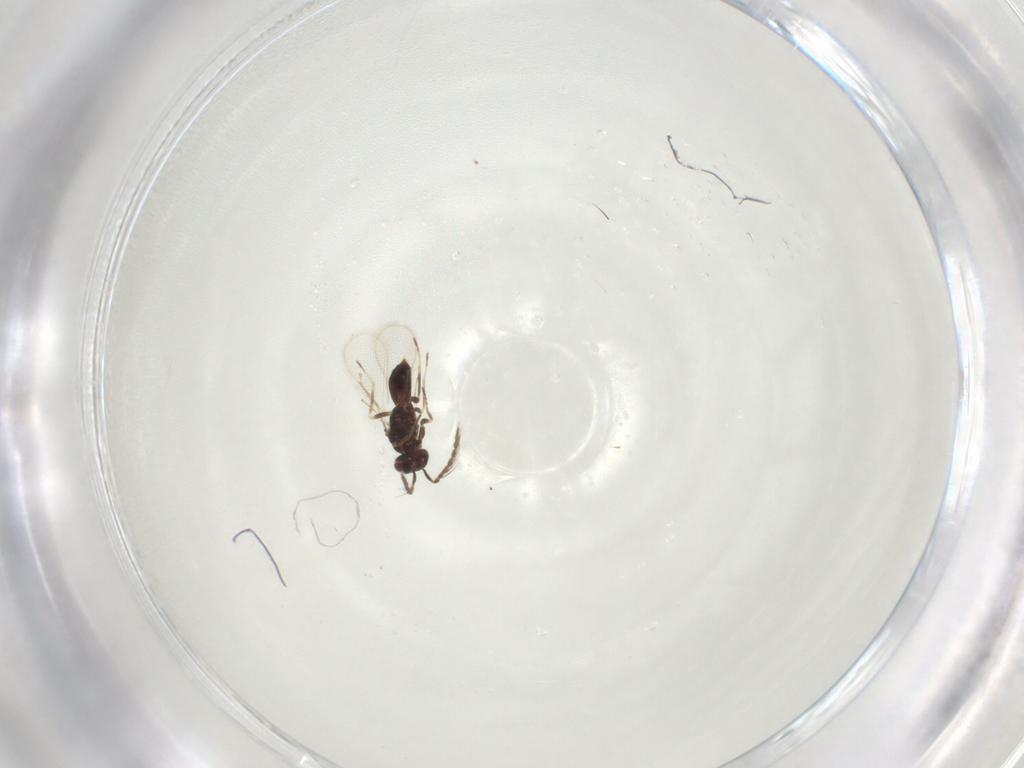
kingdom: Animalia
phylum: Arthropoda
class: Insecta
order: Hymenoptera
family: Eulophidae
